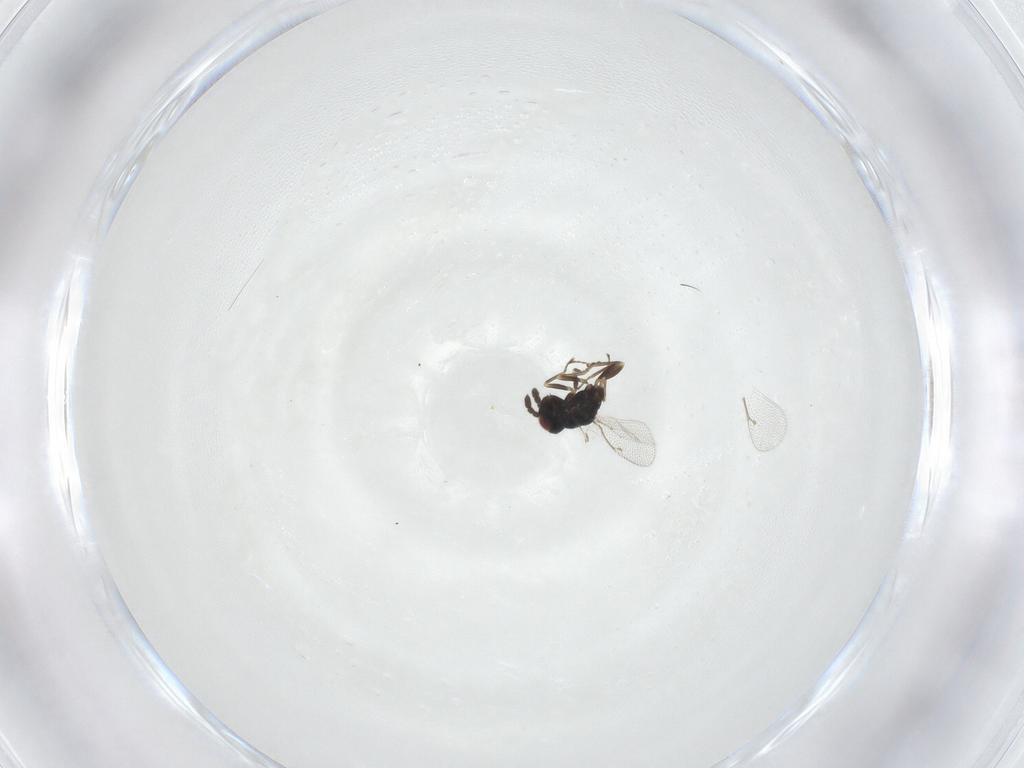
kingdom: Animalia
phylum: Arthropoda
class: Insecta
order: Hymenoptera
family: Eulophidae
